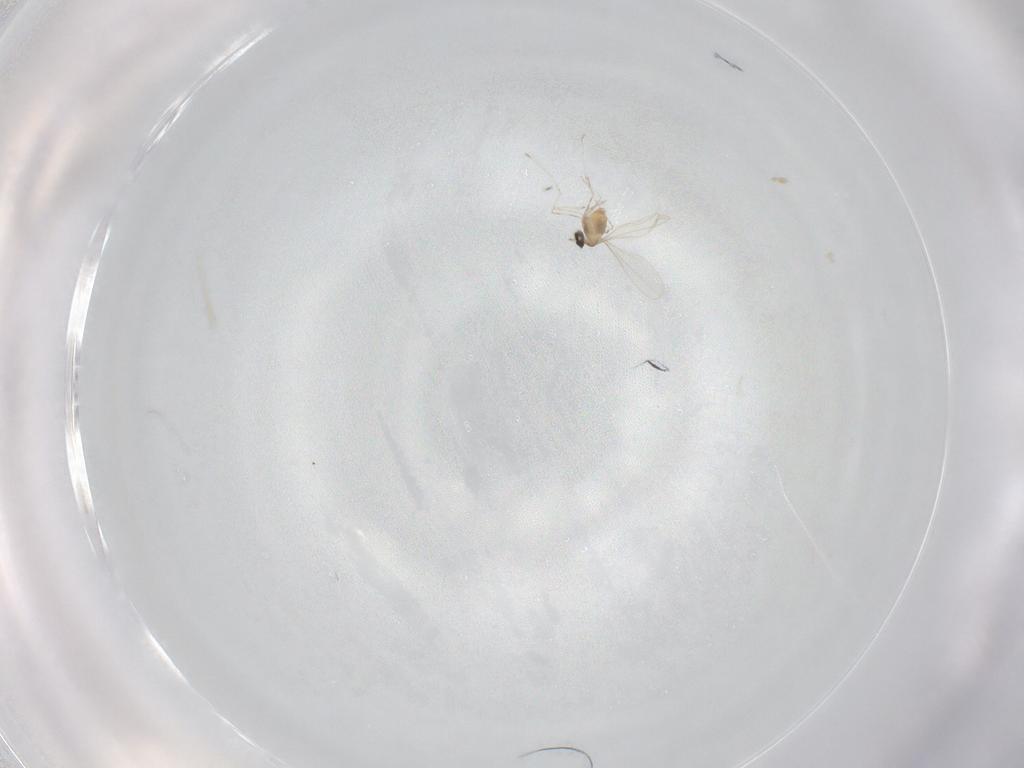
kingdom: Animalia
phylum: Arthropoda
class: Insecta
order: Diptera
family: Cecidomyiidae
